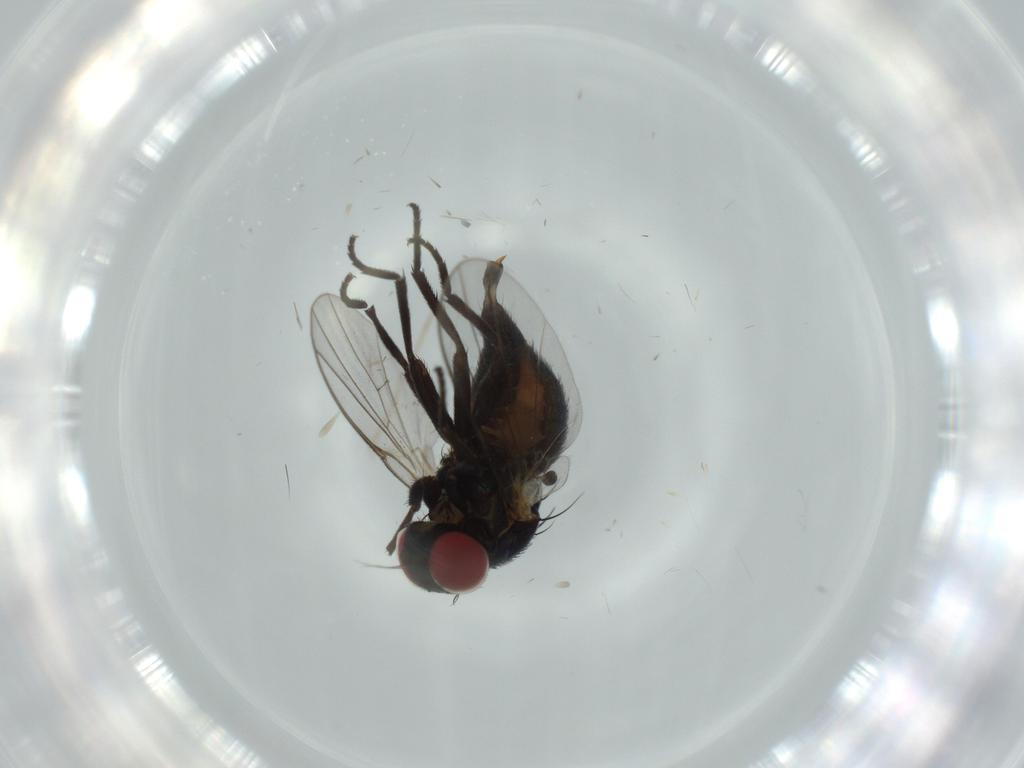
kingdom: Animalia
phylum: Arthropoda
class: Insecta
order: Diptera
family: Agromyzidae
